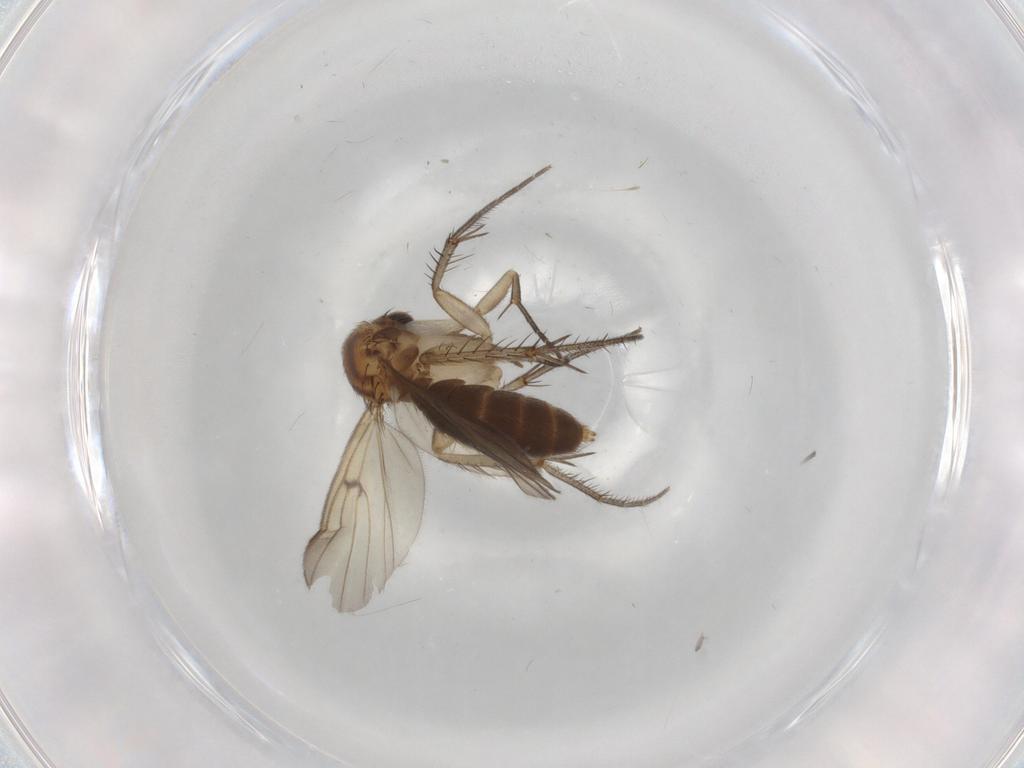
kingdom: Animalia
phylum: Arthropoda
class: Insecta
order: Diptera
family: Mycetophilidae
